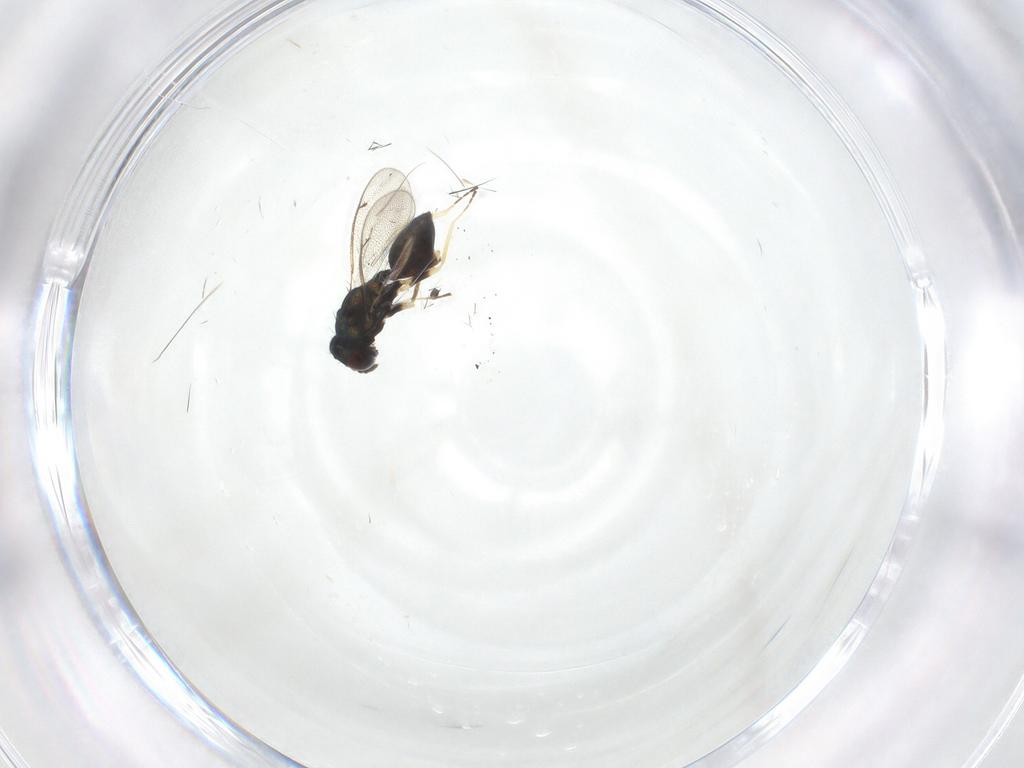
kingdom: Animalia
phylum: Arthropoda
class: Insecta
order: Hymenoptera
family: Eulophidae
